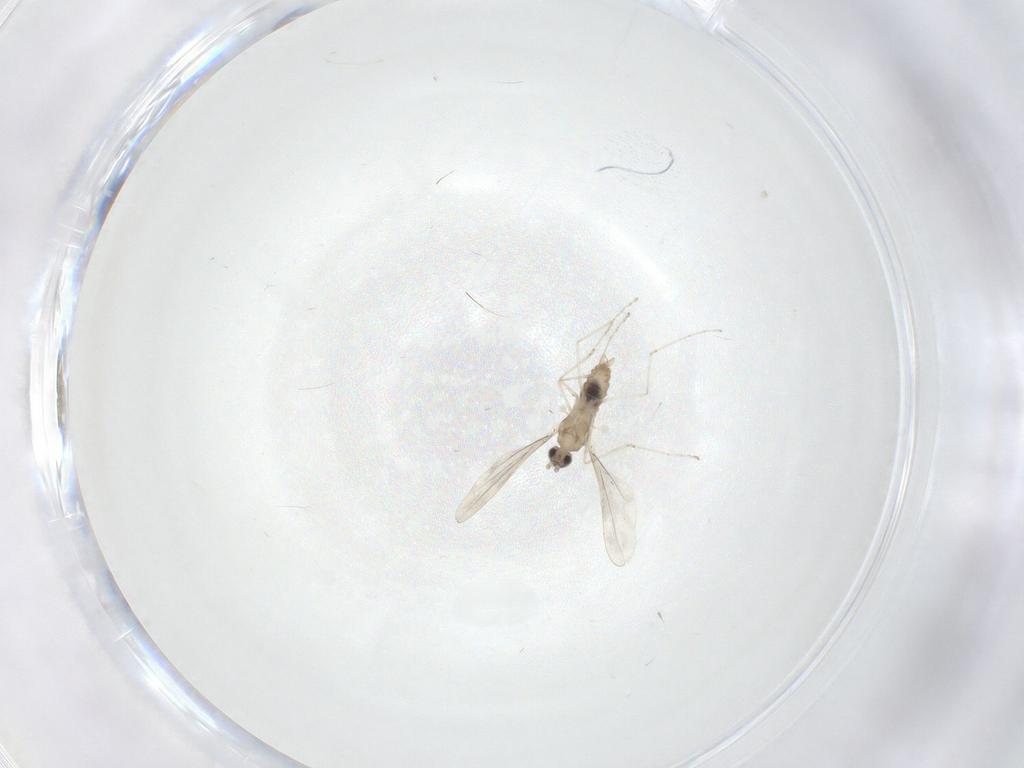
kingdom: Animalia
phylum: Arthropoda
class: Insecta
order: Diptera
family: Cecidomyiidae
